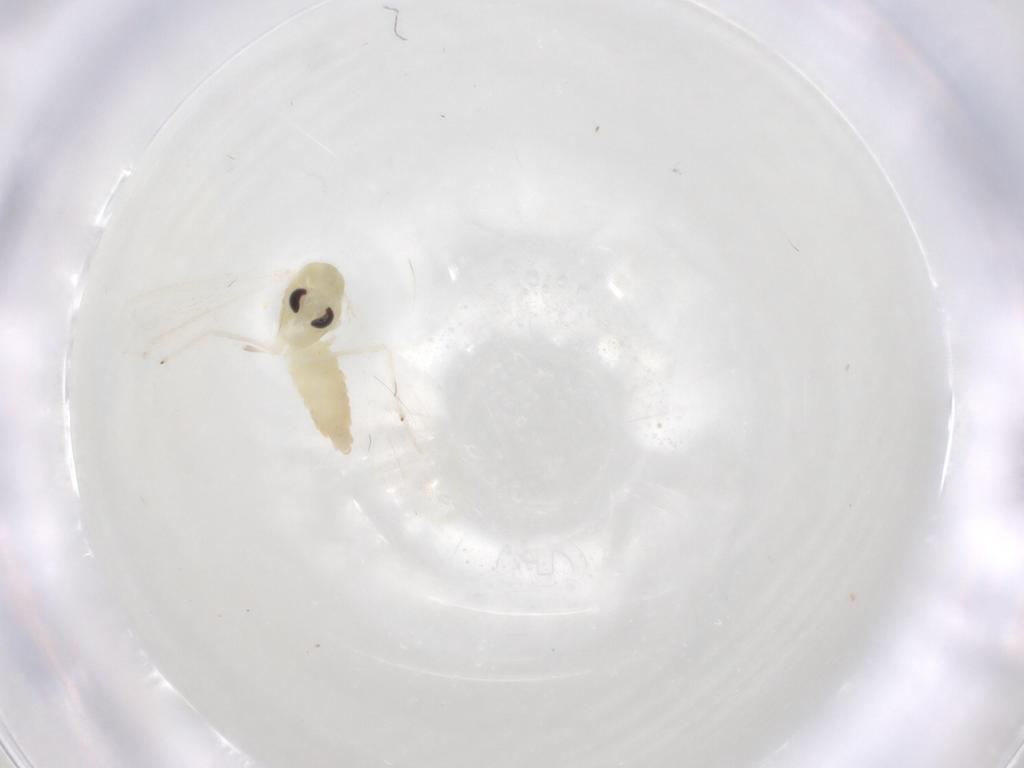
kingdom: Animalia
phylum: Arthropoda
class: Insecta
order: Diptera
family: Chironomidae
